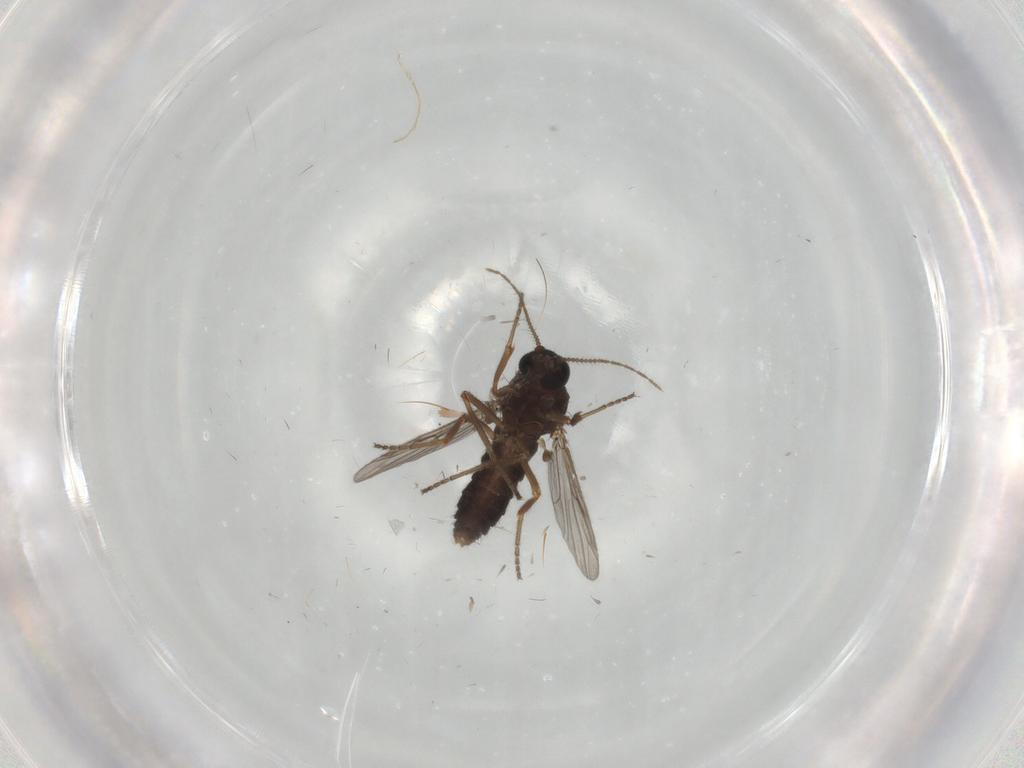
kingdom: Animalia
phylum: Arthropoda
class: Insecta
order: Diptera
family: Ceratopogonidae
